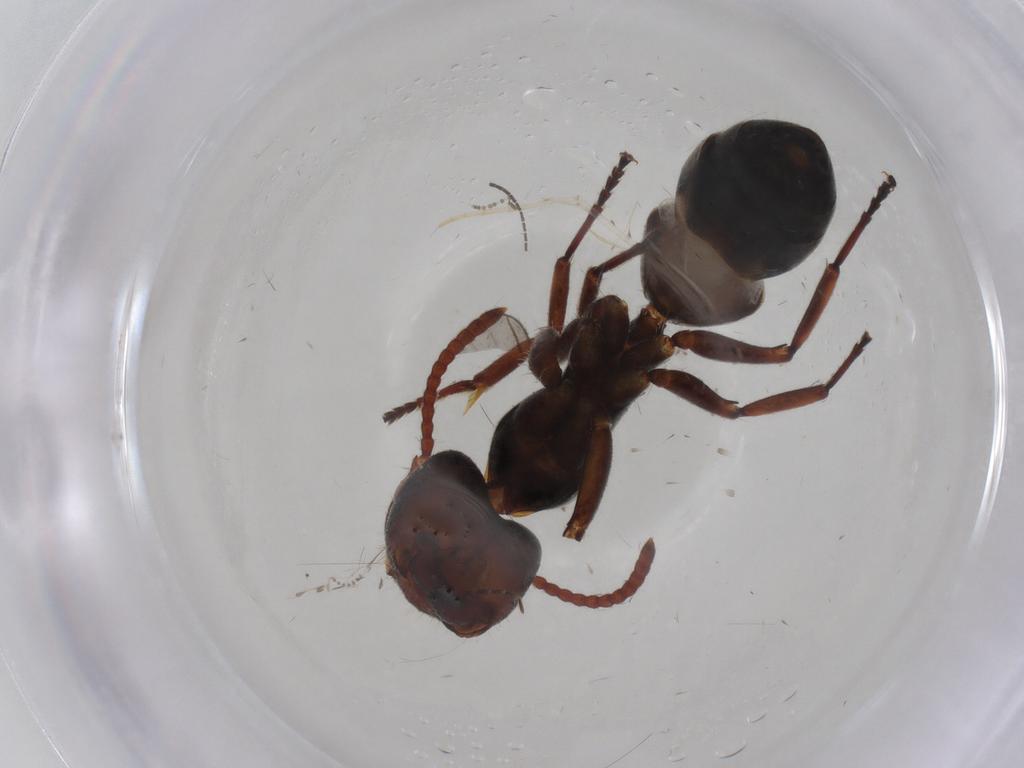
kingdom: Animalia
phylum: Arthropoda
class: Insecta
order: Hymenoptera
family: Formicidae
